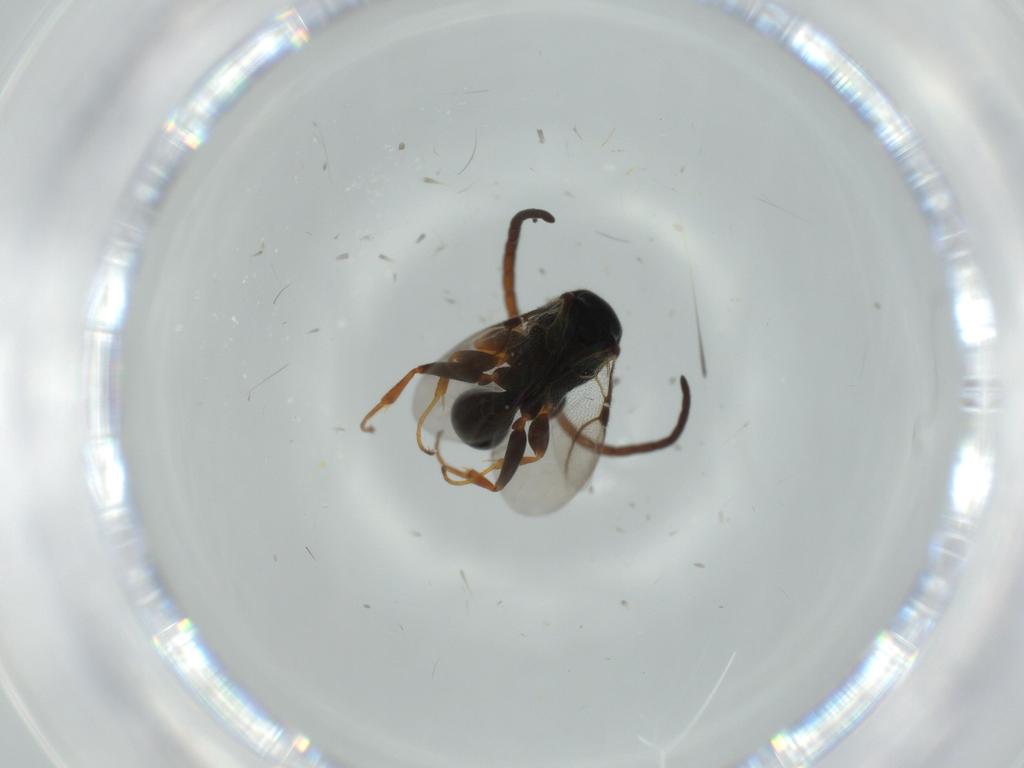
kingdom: Animalia
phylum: Arthropoda
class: Insecta
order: Hymenoptera
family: Bethylidae
